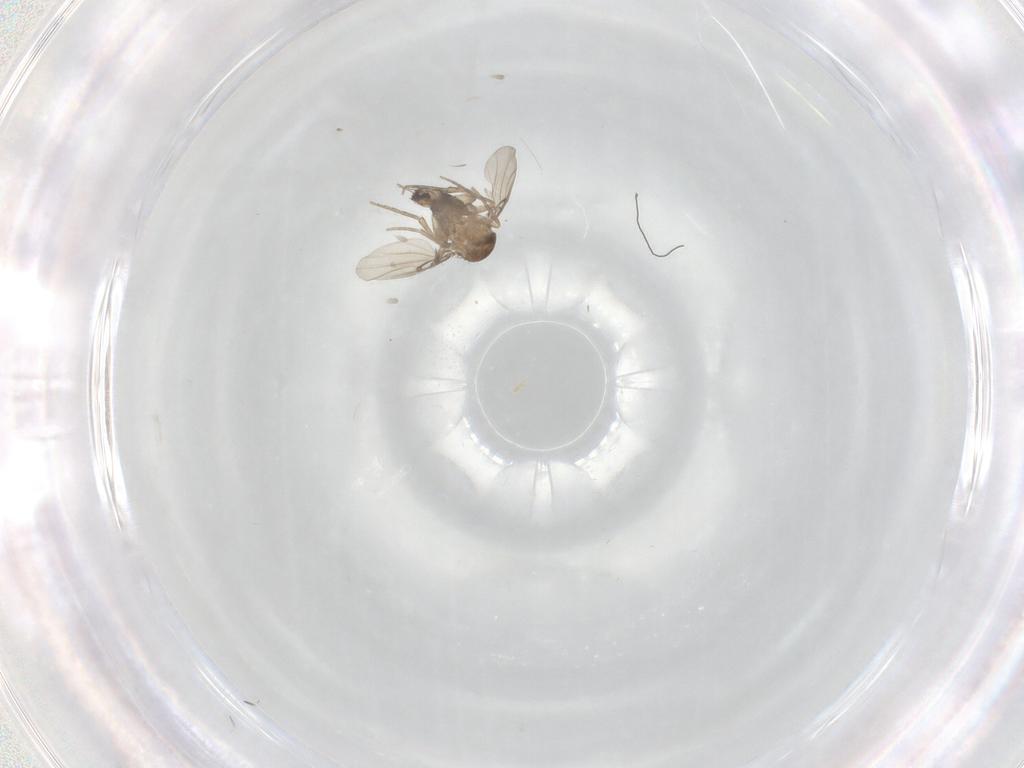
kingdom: Animalia
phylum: Arthropoda
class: Insecta
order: Diptera
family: Phoridae
